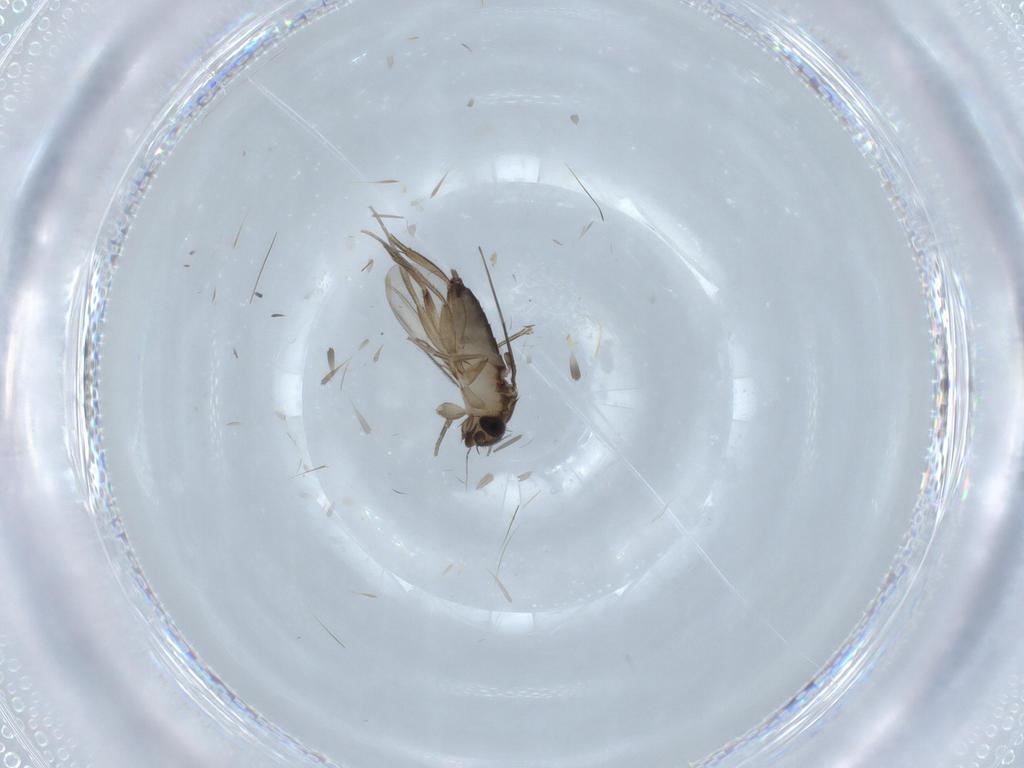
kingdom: Animalia
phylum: Arthropoda
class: Insecta
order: Diptera
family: Phoridae
